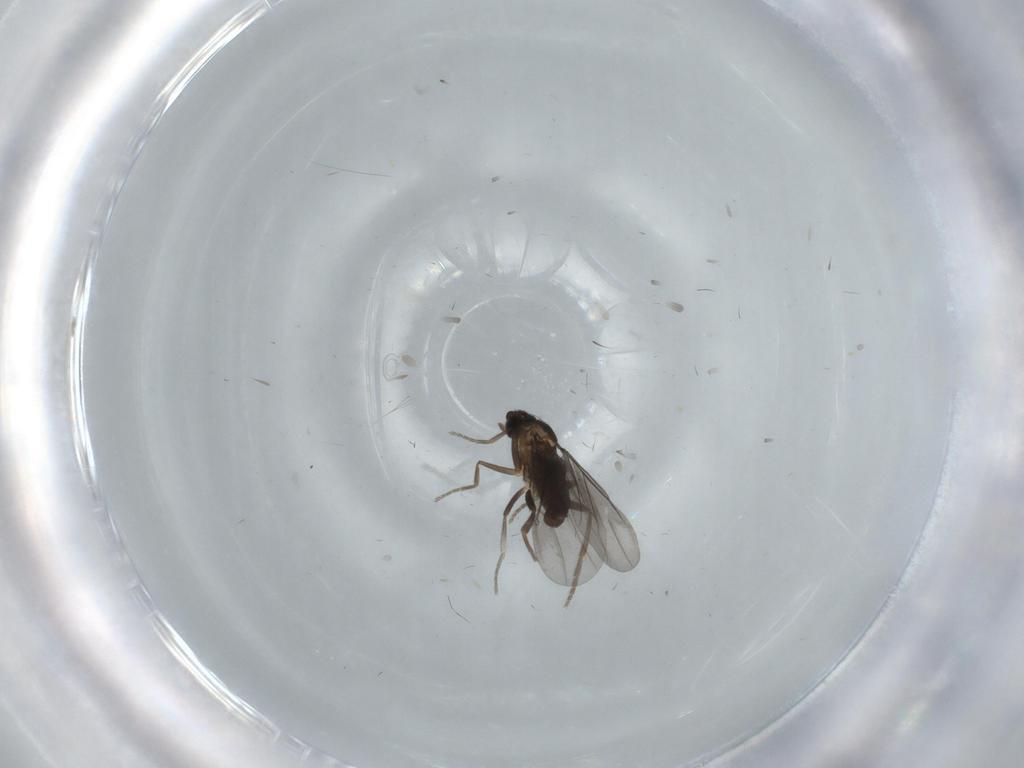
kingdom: Animalia
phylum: Arthropoda
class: Insecta
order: Diptera
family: Phoridae
